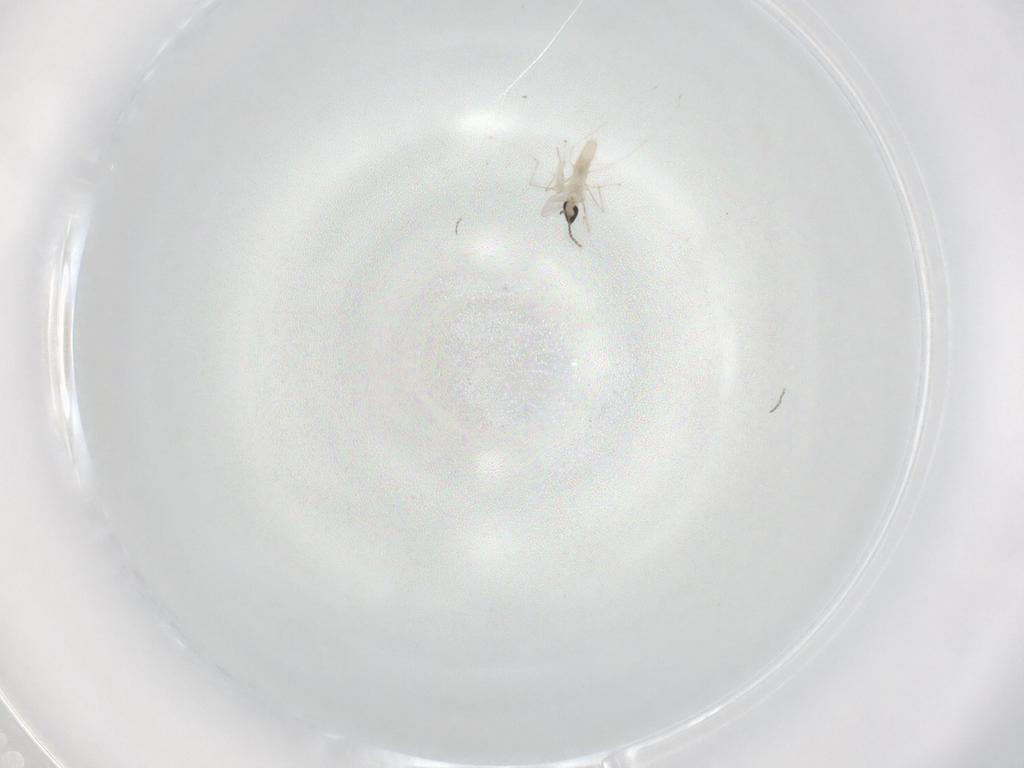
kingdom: Animalia
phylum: Arthropoda
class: Insecta
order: Diptera
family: Cecidomyiidae
